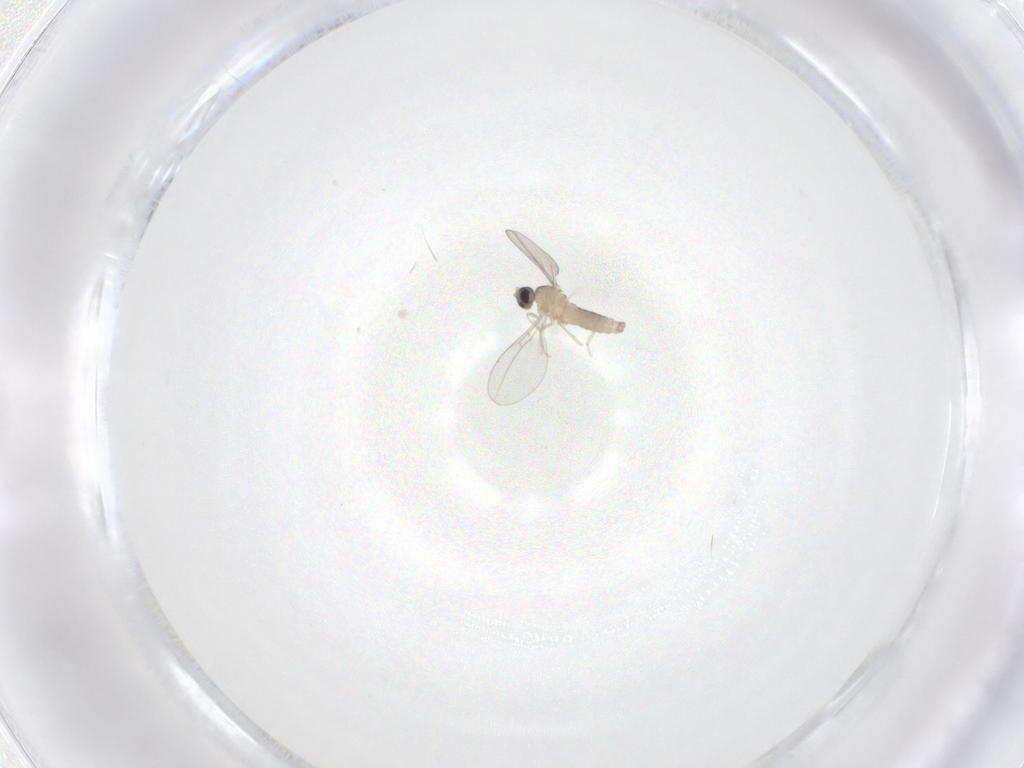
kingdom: Animalia
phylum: Arthropoda
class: Insecta
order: Diptera
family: Cecidomyiidae
